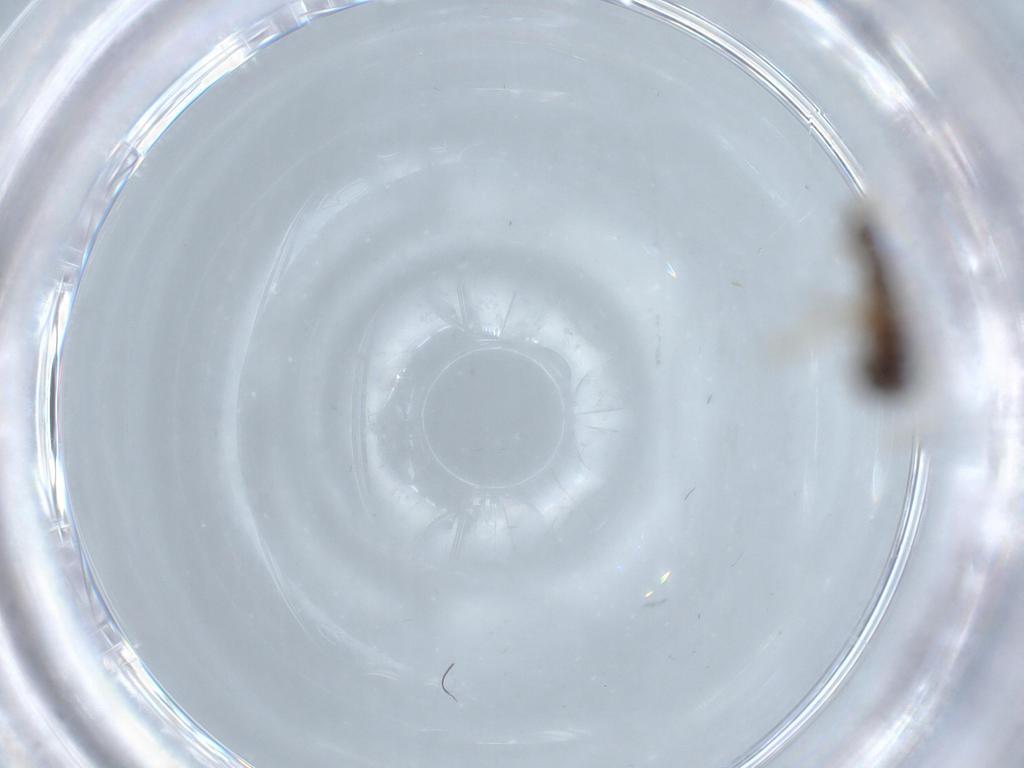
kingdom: Animalia
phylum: Arthropoda
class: Insecta
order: Diptera
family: Chironomidae
